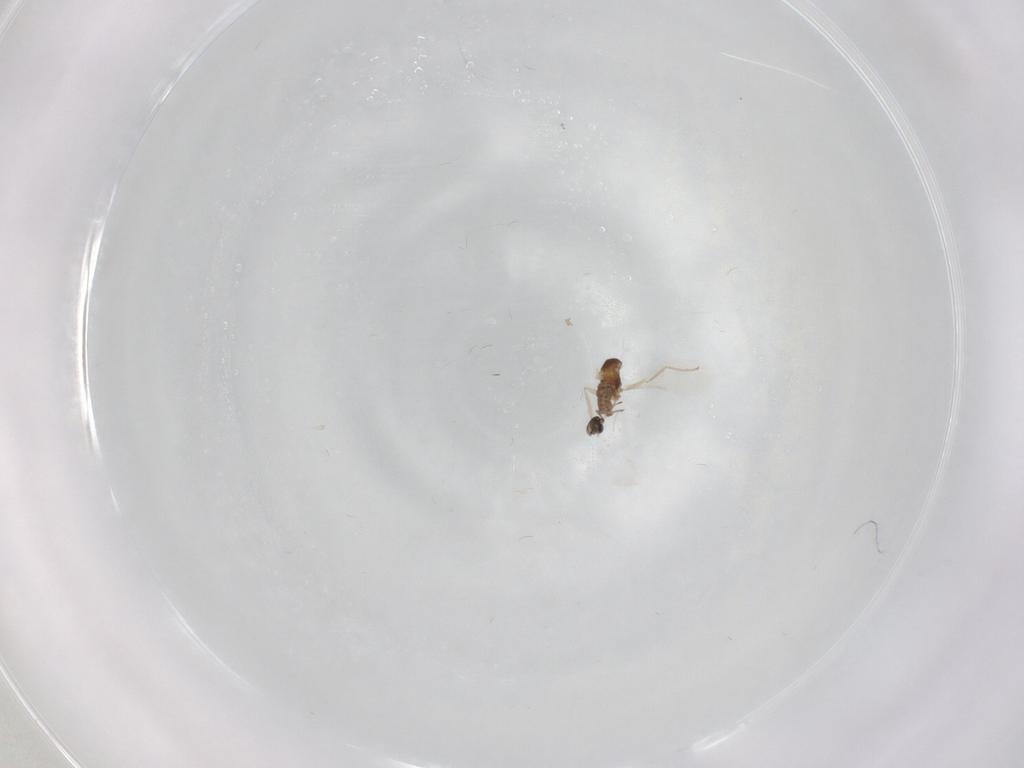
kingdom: Animalia
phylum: Arthropoda
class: Insecta
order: Diptera
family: Cecidomyiidae
